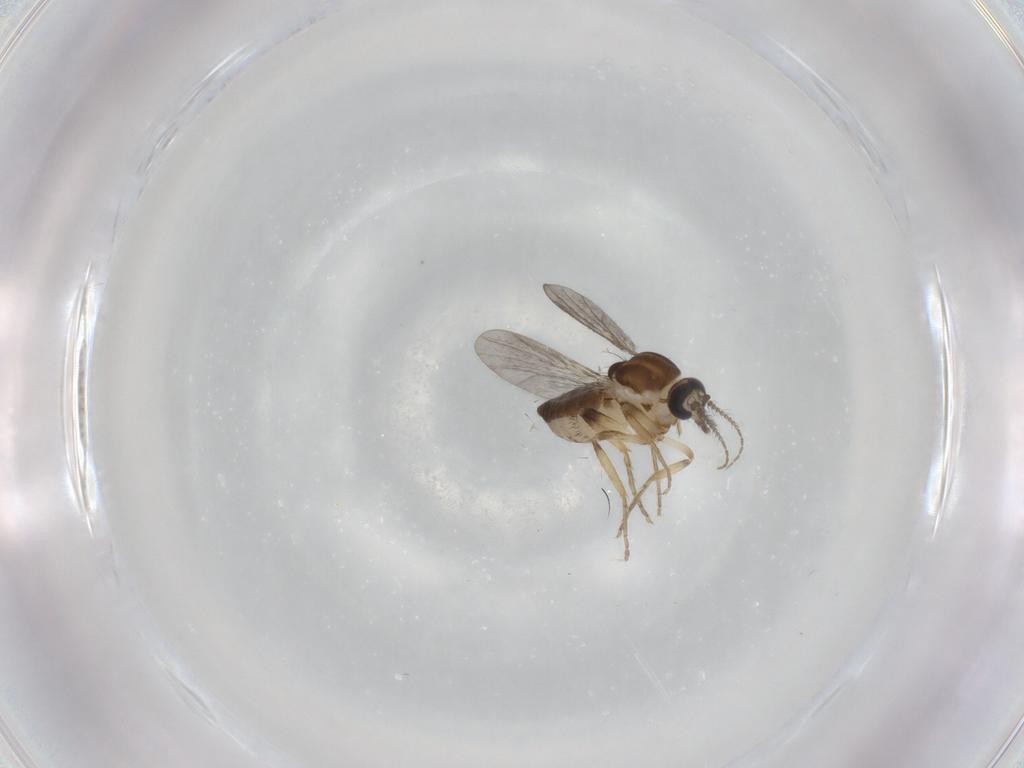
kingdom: Animalia
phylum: Arthropoda
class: Insecta
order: Diptera
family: Ceratopogonidae
